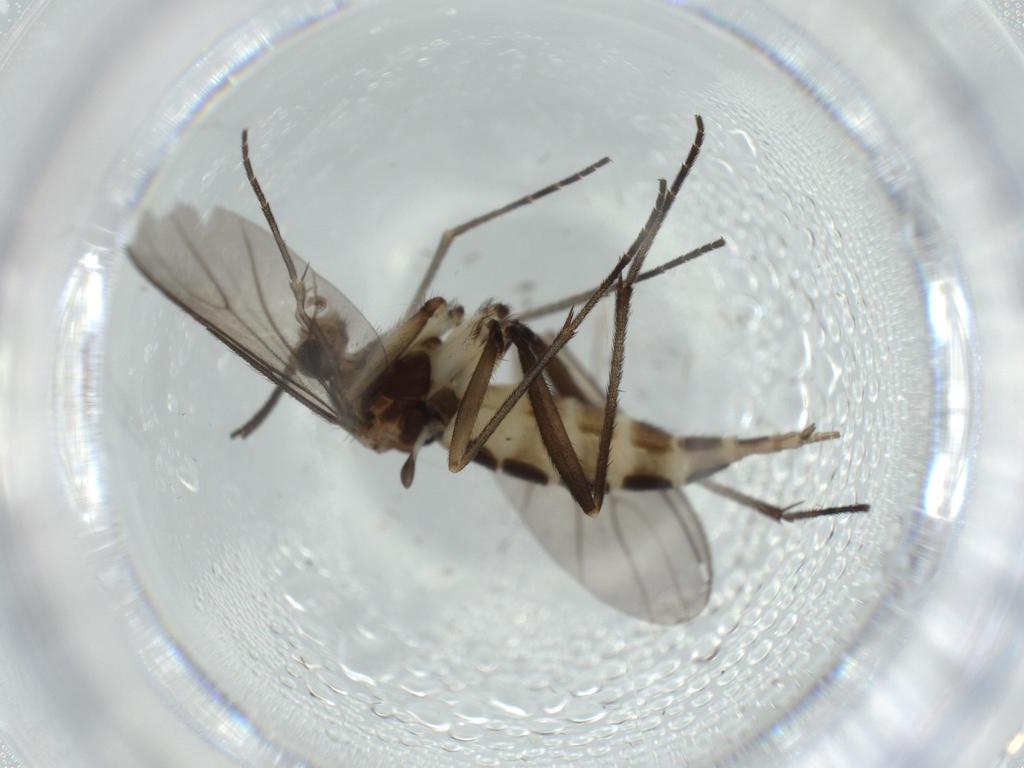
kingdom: Animalia
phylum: Arthropoda
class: Insecta
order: Diptera
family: Sciaridae
